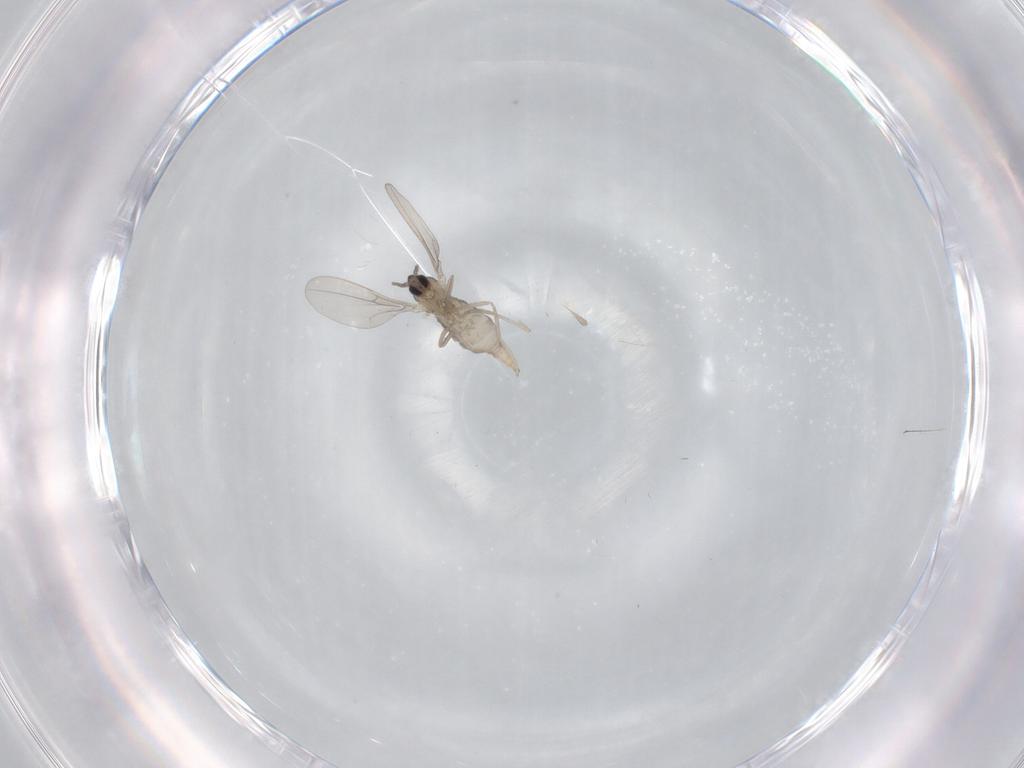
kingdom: Animalia
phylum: Arthropoda
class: Insecta
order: Diptera
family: Cecidomyiidae
